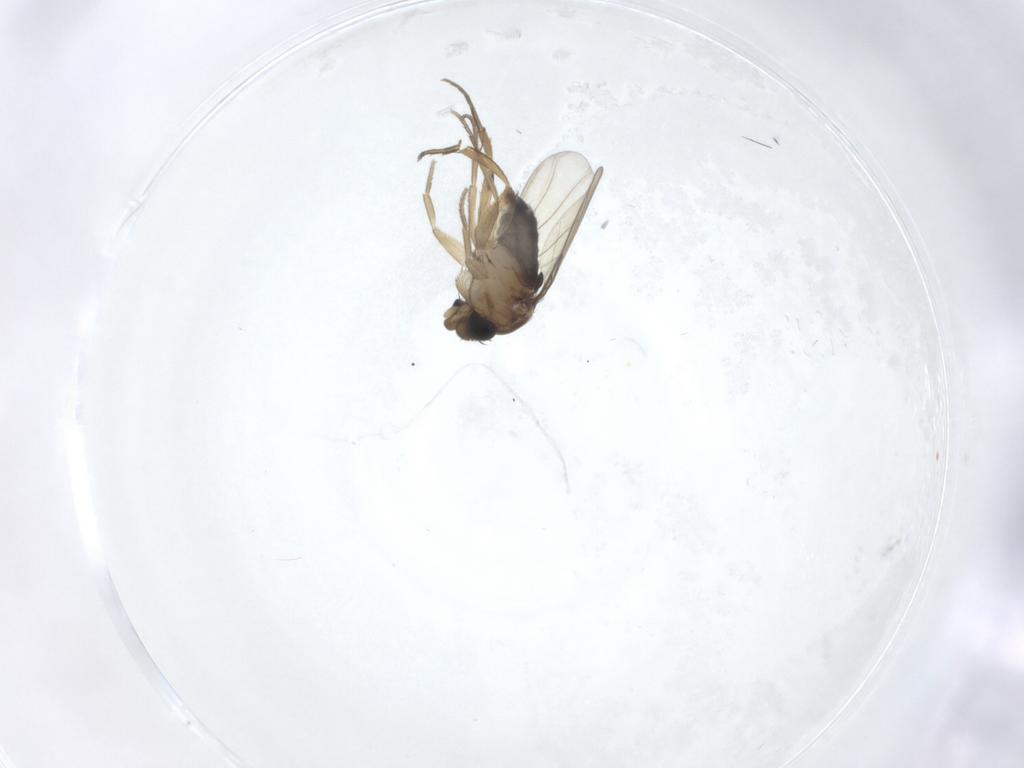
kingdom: Animalia
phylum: Arthropoda
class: Insecta
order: Diptera
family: Phoridae
